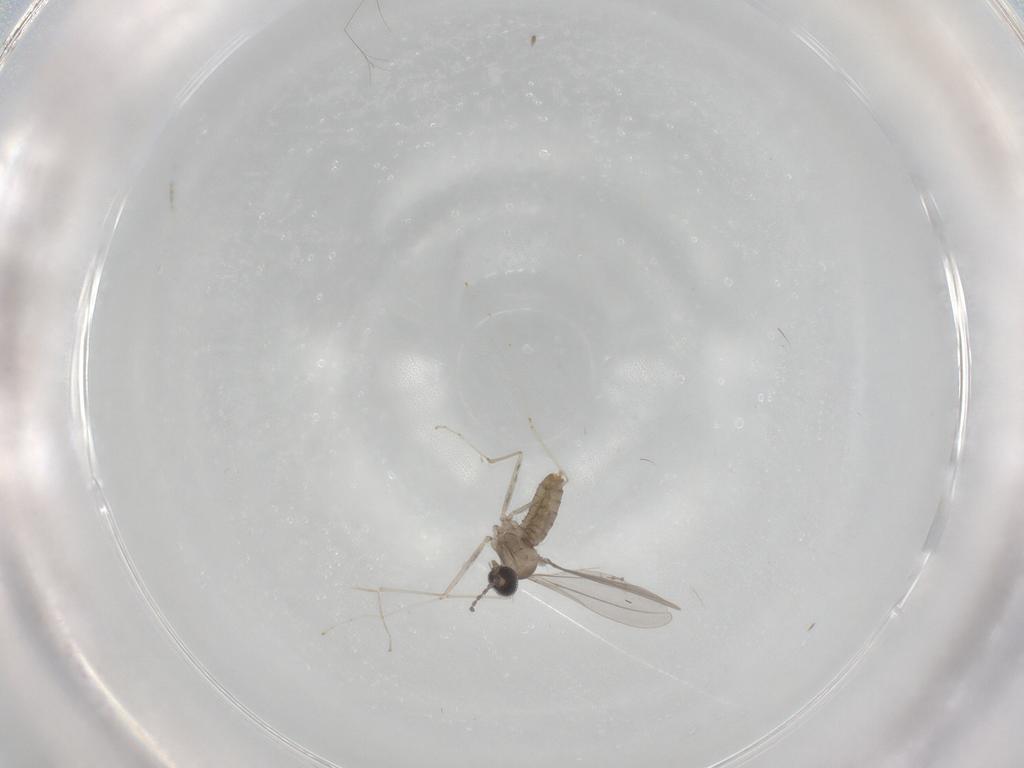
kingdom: Animalia
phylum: Arthropoda
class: Insecta
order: Diptera
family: Cecidomyiidae
